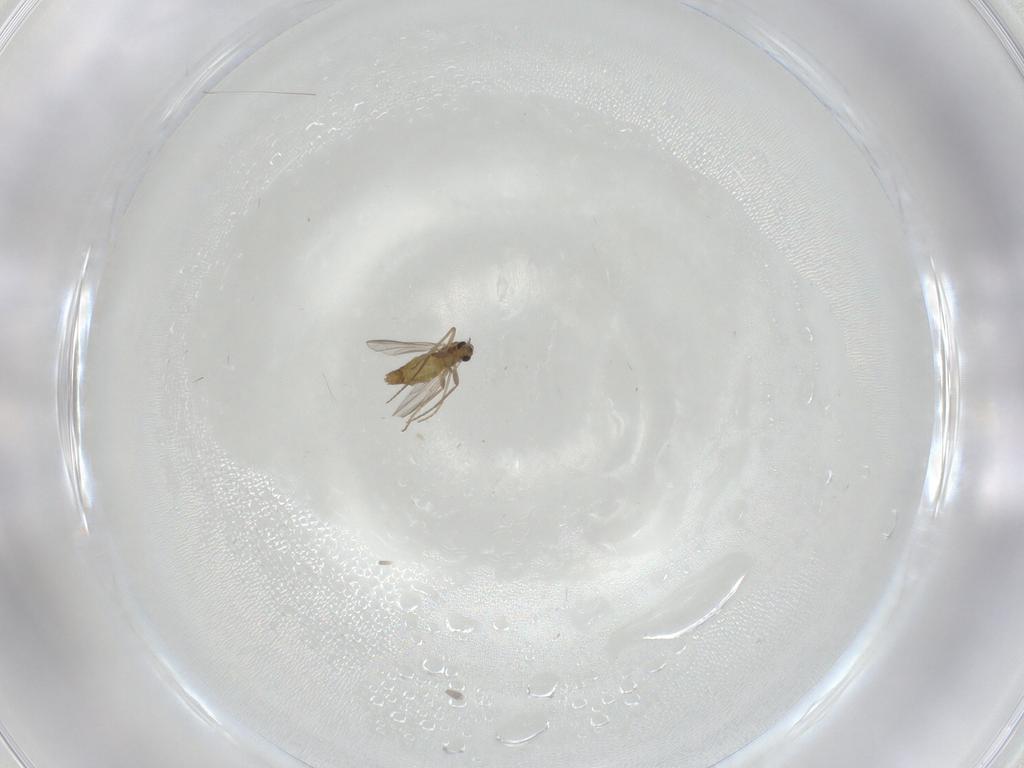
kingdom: Animalia
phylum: Arthropoda
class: Insecta
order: Diptera
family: Chironomidae
